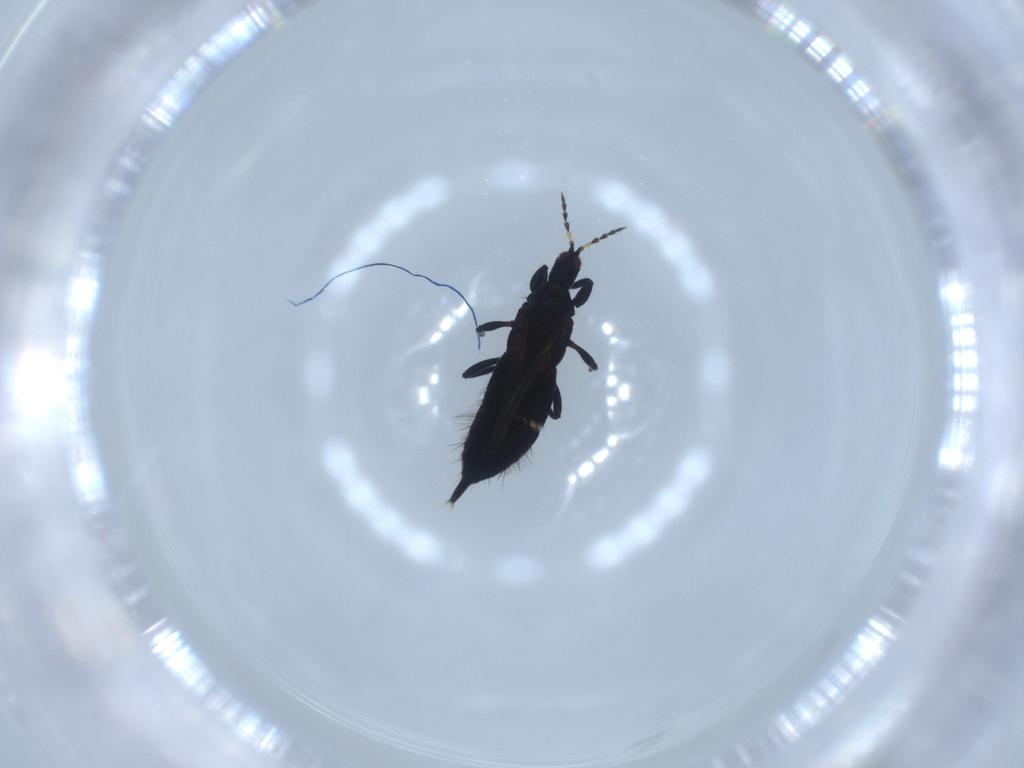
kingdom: Animalia
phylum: Arthropoda
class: Insecta
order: Thysanoptera
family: Phlaeothripidae
